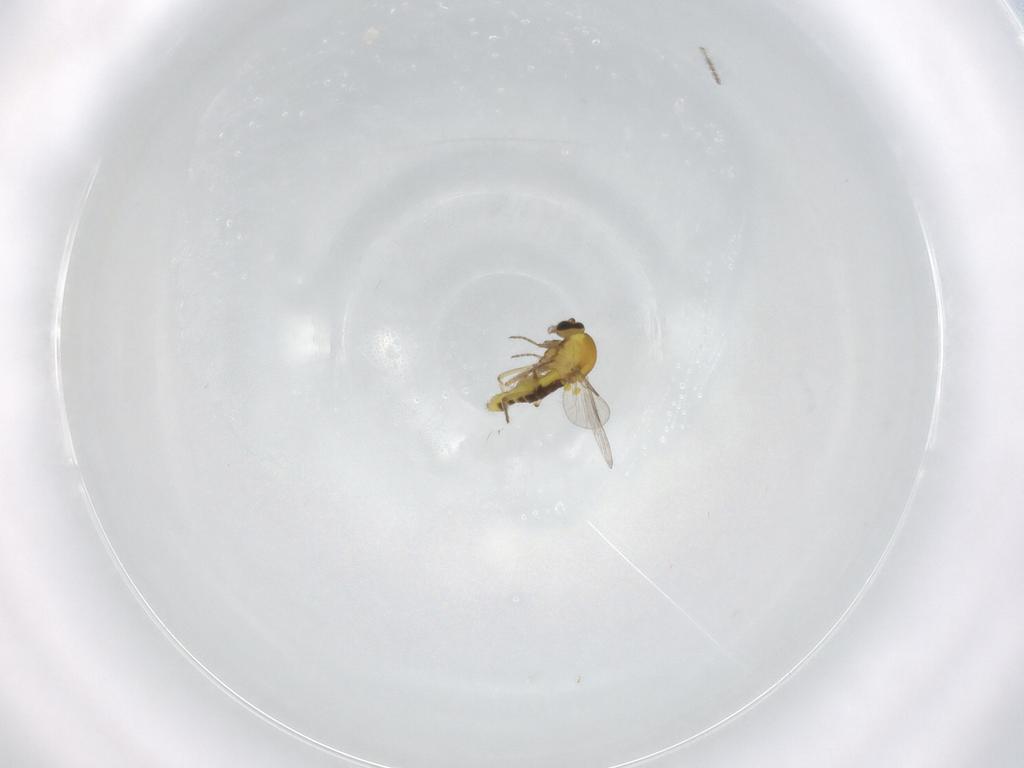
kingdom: Animalia
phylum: Arthropoda
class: Insecta
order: Diptera
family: Ceratopogonidae
